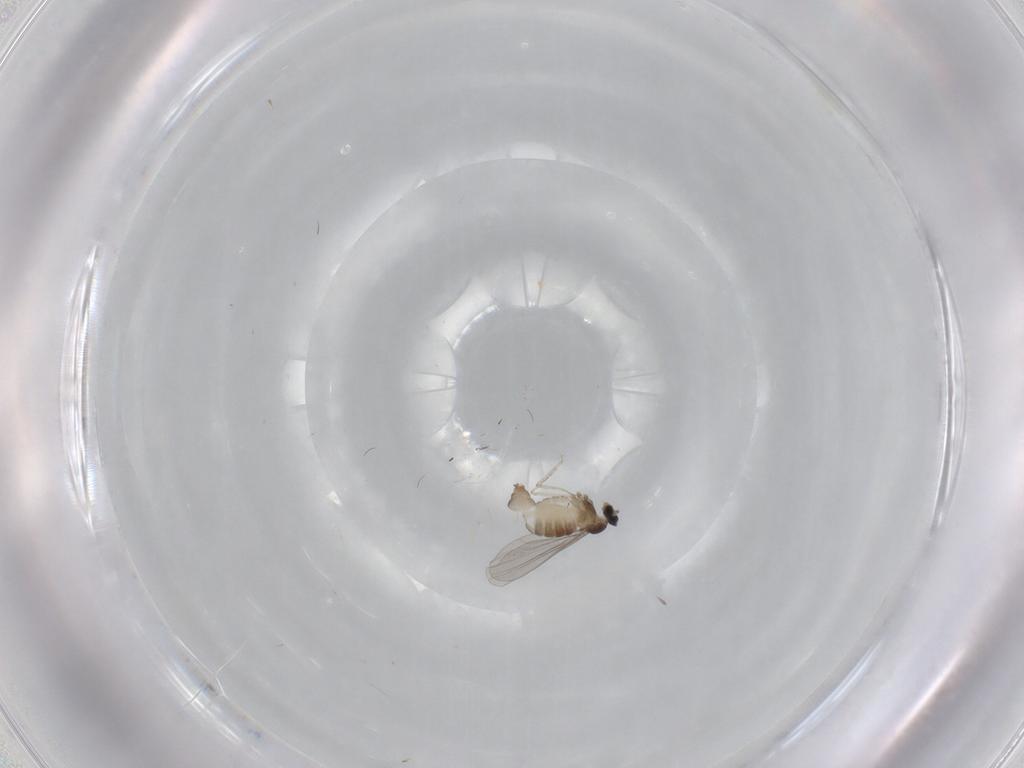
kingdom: Animalia
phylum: Arthropoda
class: Insecta
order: Diptera
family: Cecidomyiidae
